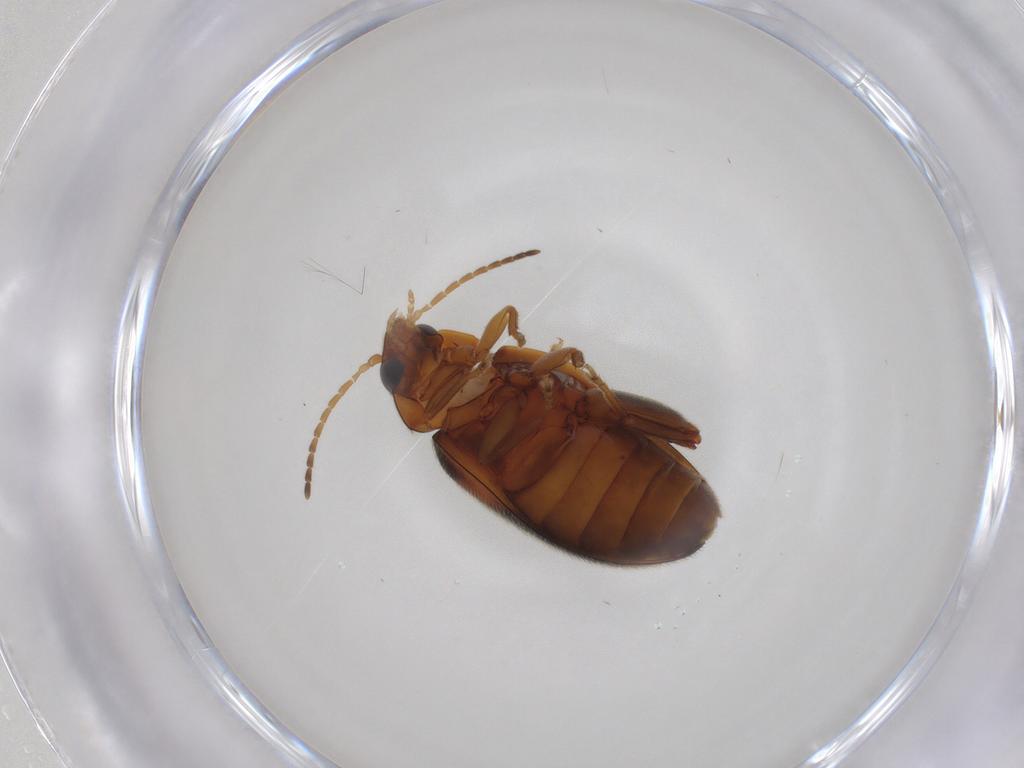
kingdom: Animalia
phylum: Arthropoda
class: Insecta
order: Coleoptera
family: Scirtidae
